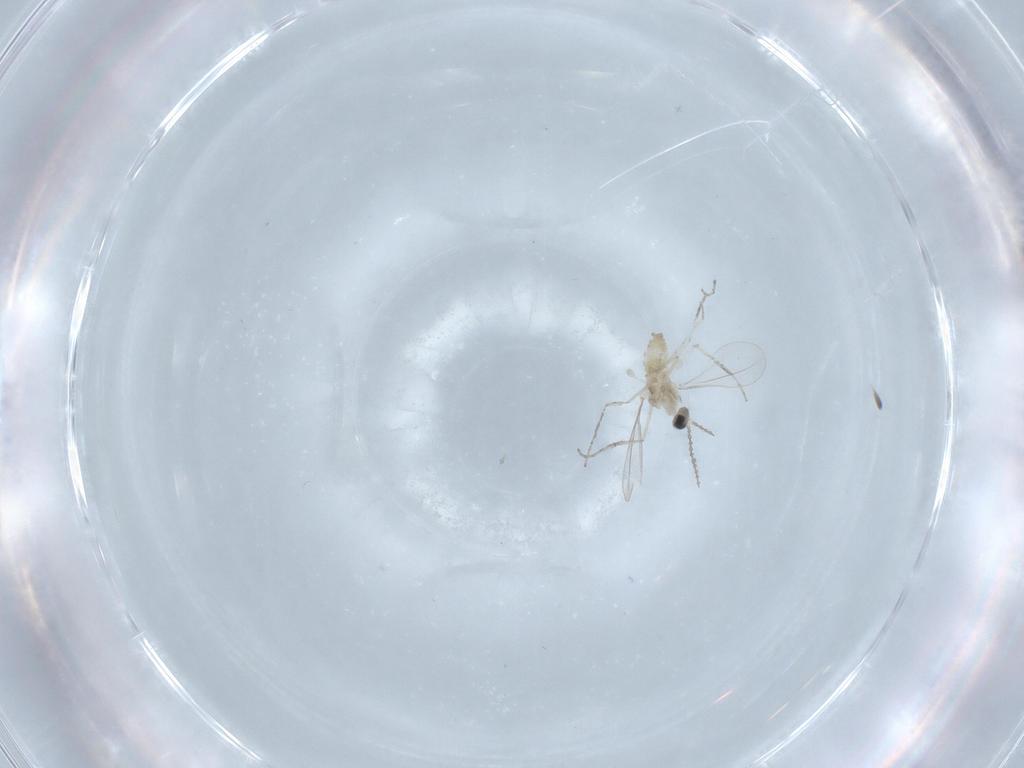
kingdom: Animalia
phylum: Arthropoda
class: Insecta
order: Diptera
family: Cecidomyiidae
